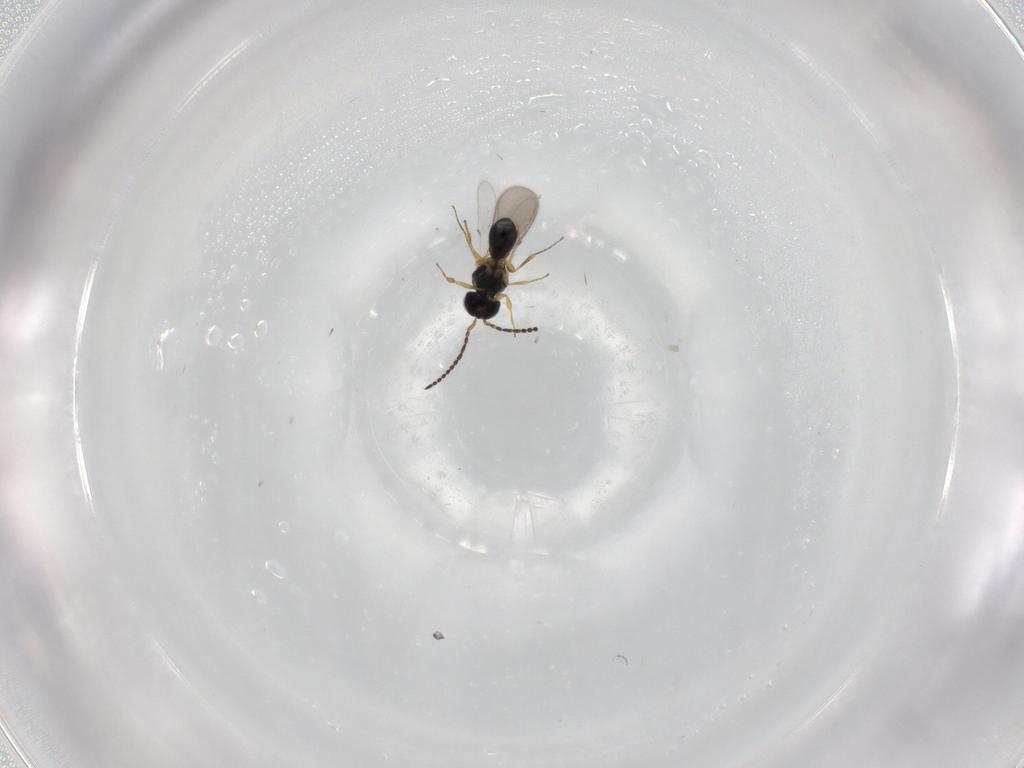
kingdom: Animalia
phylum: Arthropoda
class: Insecta
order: Hymenoptera
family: Scelionidae
